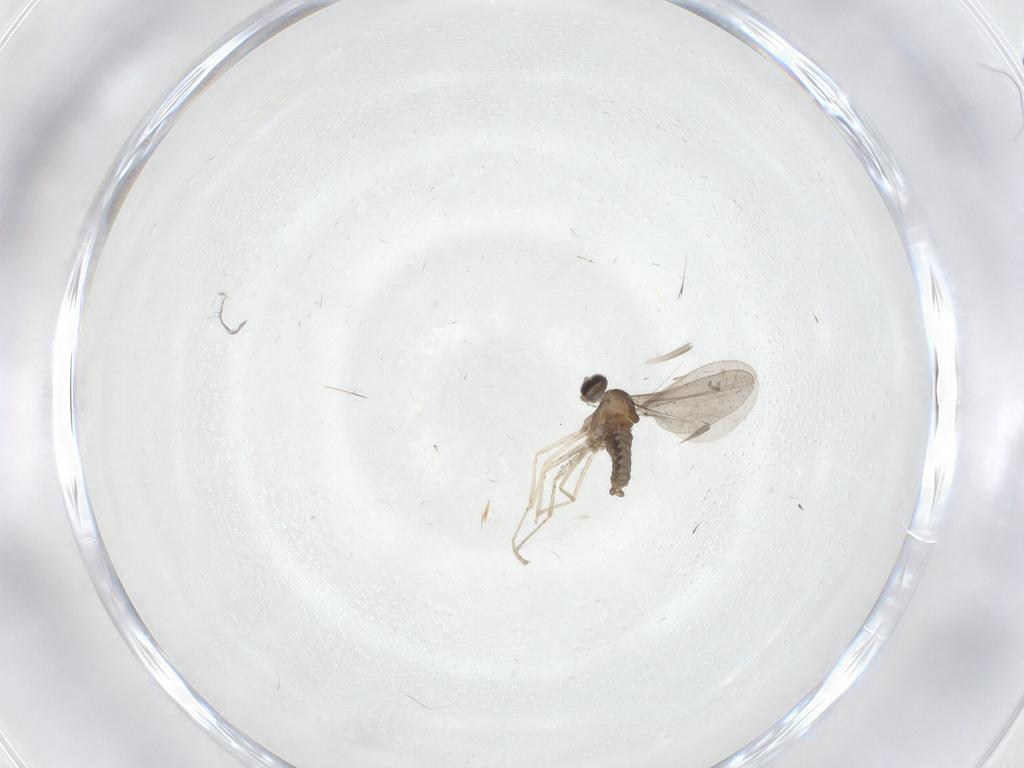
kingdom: Animalia
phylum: Arthropoda
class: Insecta
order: Diptera
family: Cecidomyiidae
